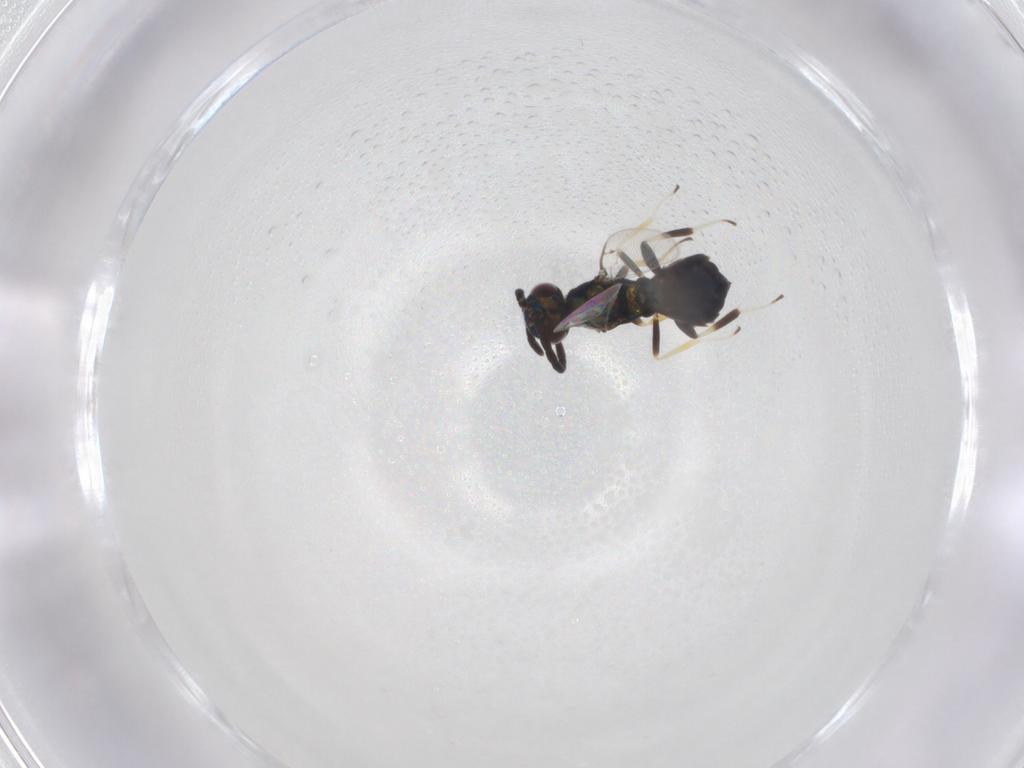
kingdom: Animalia
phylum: Arthropoda
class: Insecta
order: Hymenoptera
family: Eupelmidae
